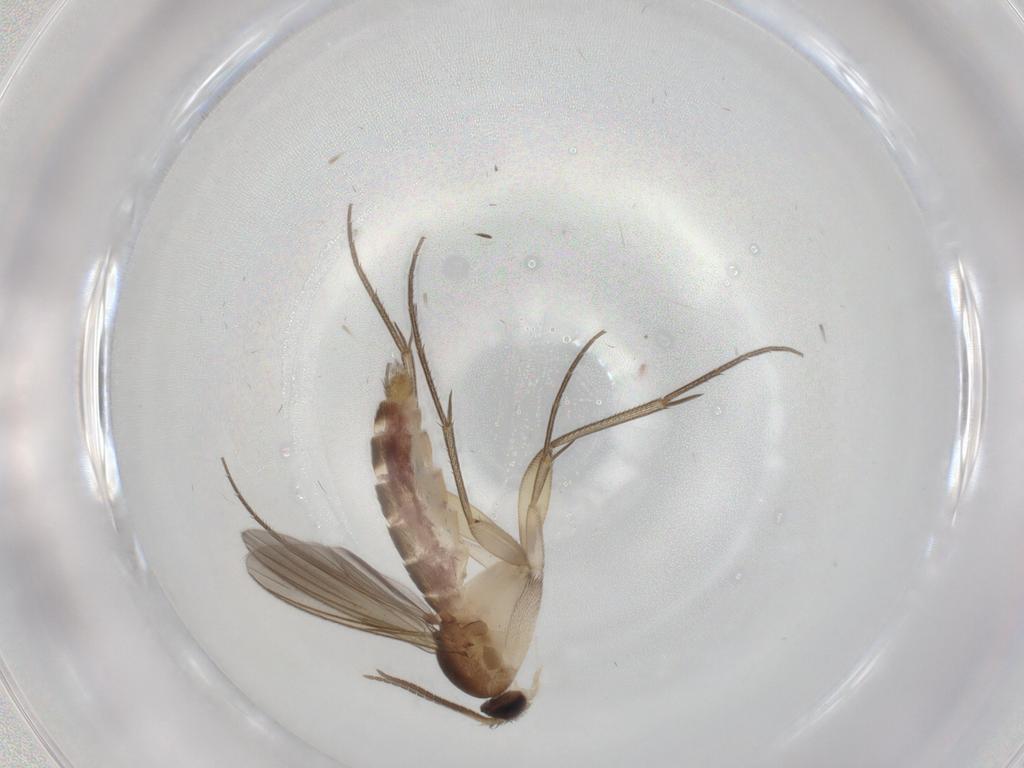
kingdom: Animalia
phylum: Arthropoda
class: Insecta
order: Diptera
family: Mycetophilidae
